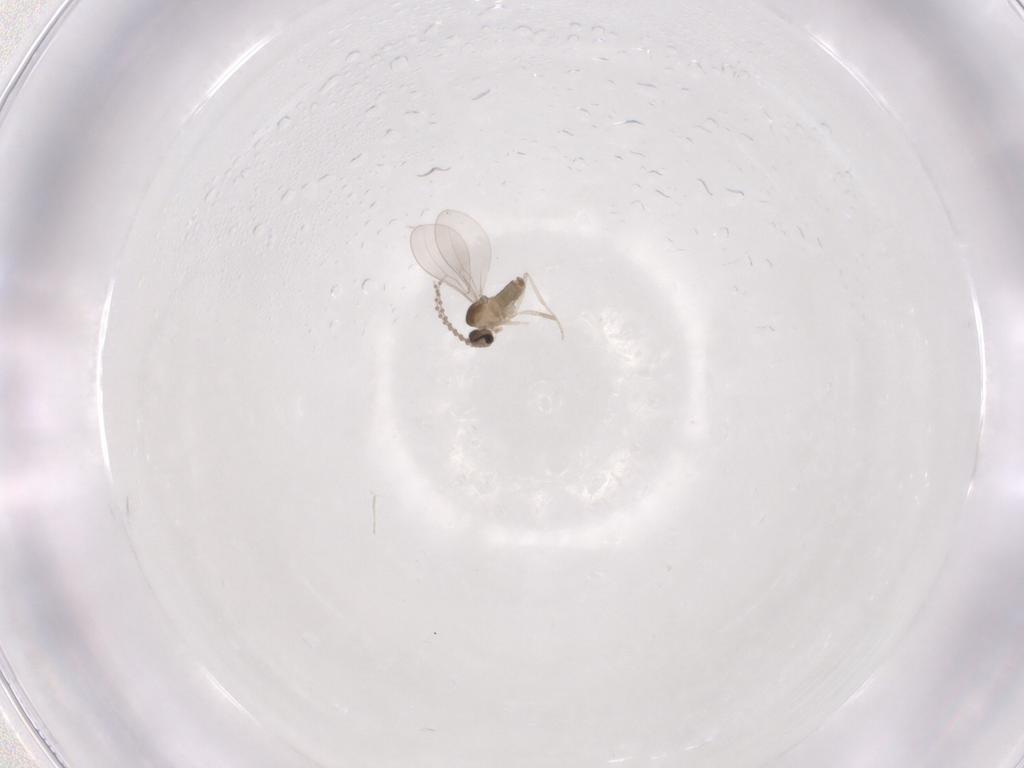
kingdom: Animalia
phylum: Arthropoda
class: Insecta
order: Diptera
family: Cecidomyiidae
